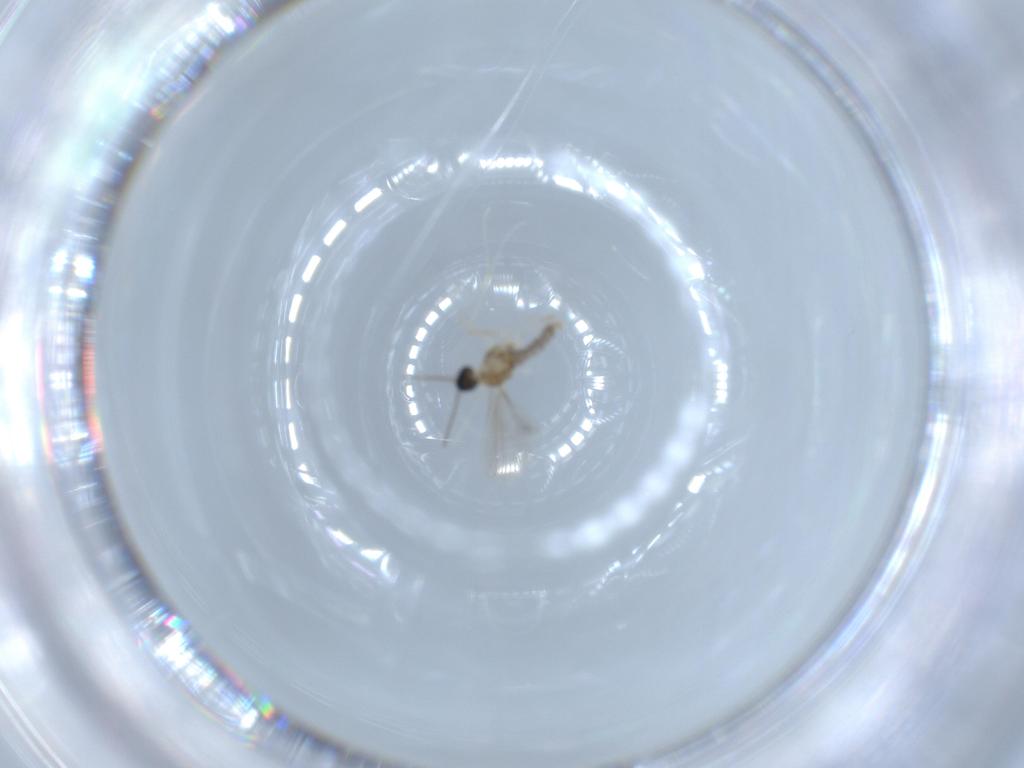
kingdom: Animalia
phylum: Arthropoda
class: Insecta
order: Diptera
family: Cecidomyiidae
